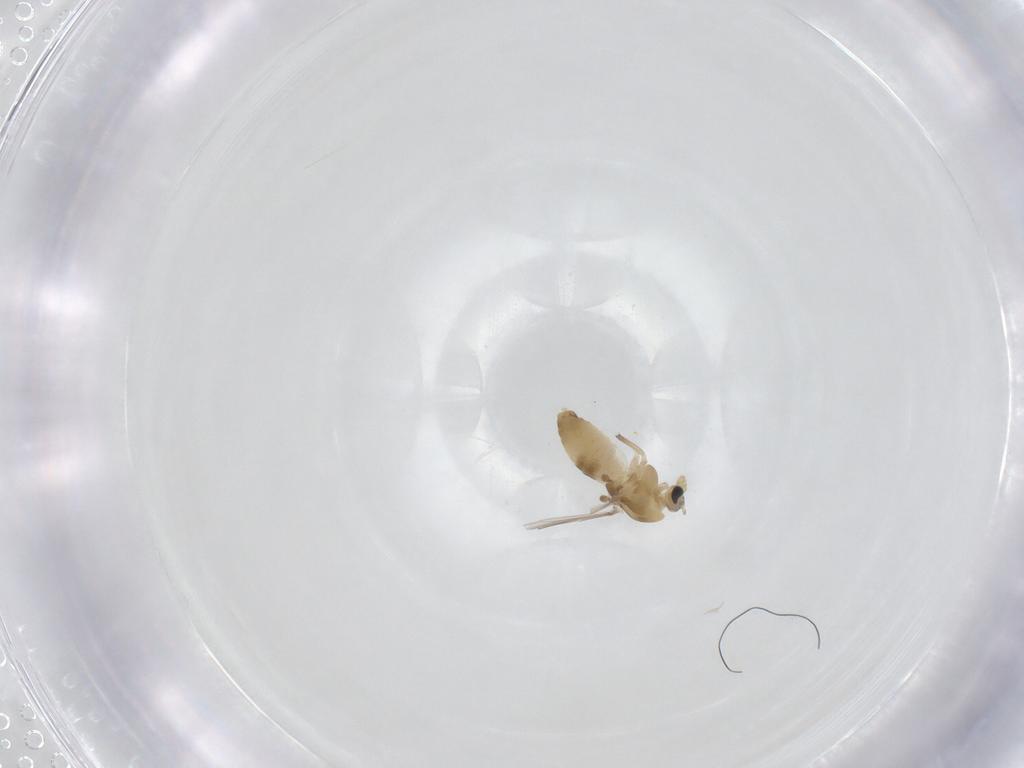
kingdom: Animalia
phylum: Arthropoda
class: Insecta
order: Diptera
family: Chironomidae
